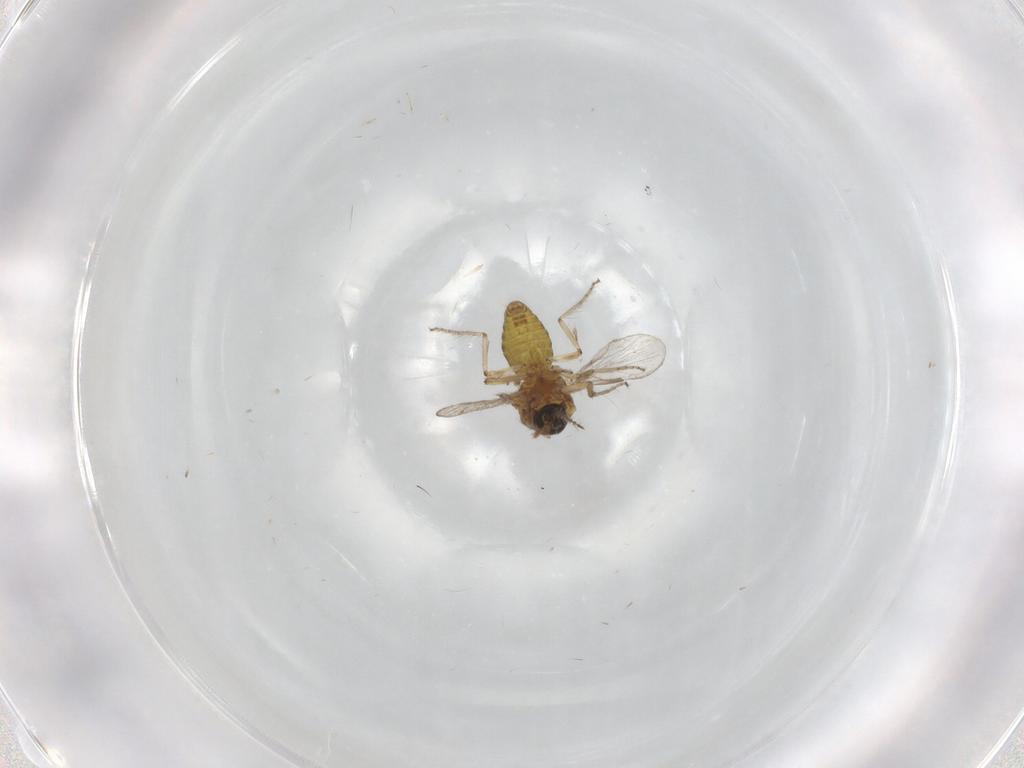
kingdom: Animalia
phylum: Arthropoda
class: Insecta
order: Diptera
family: Ceratopogonidae
